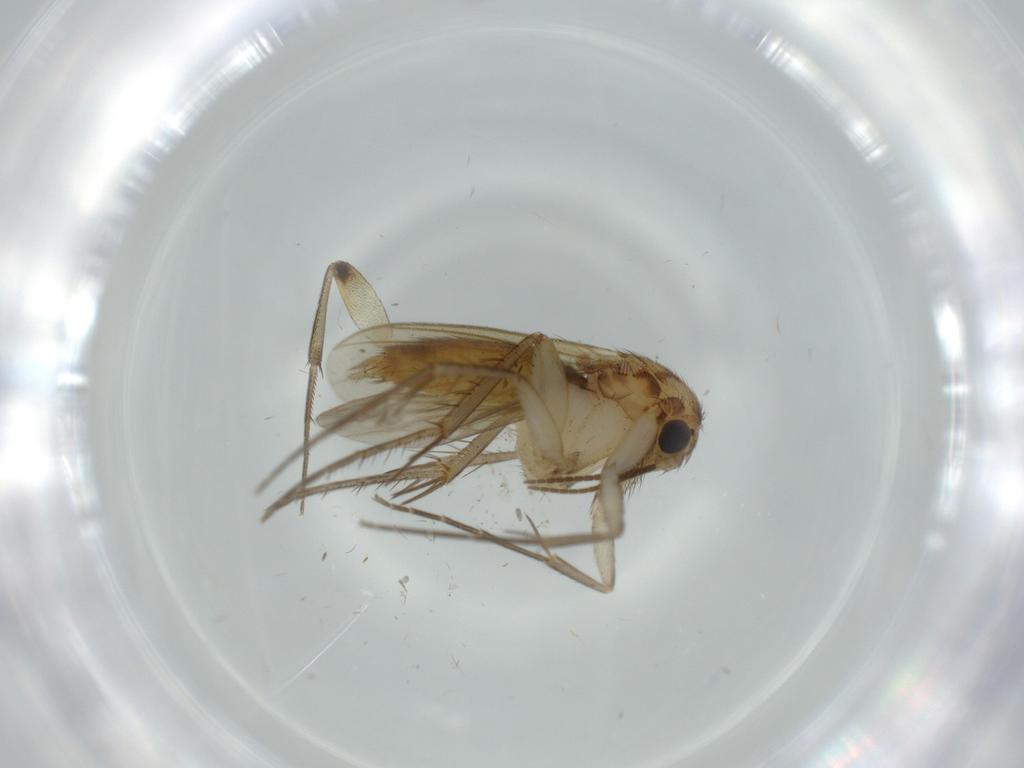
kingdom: Animalia
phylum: Arthropoda
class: Insecta
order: Diptera
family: Mycetophilidae
